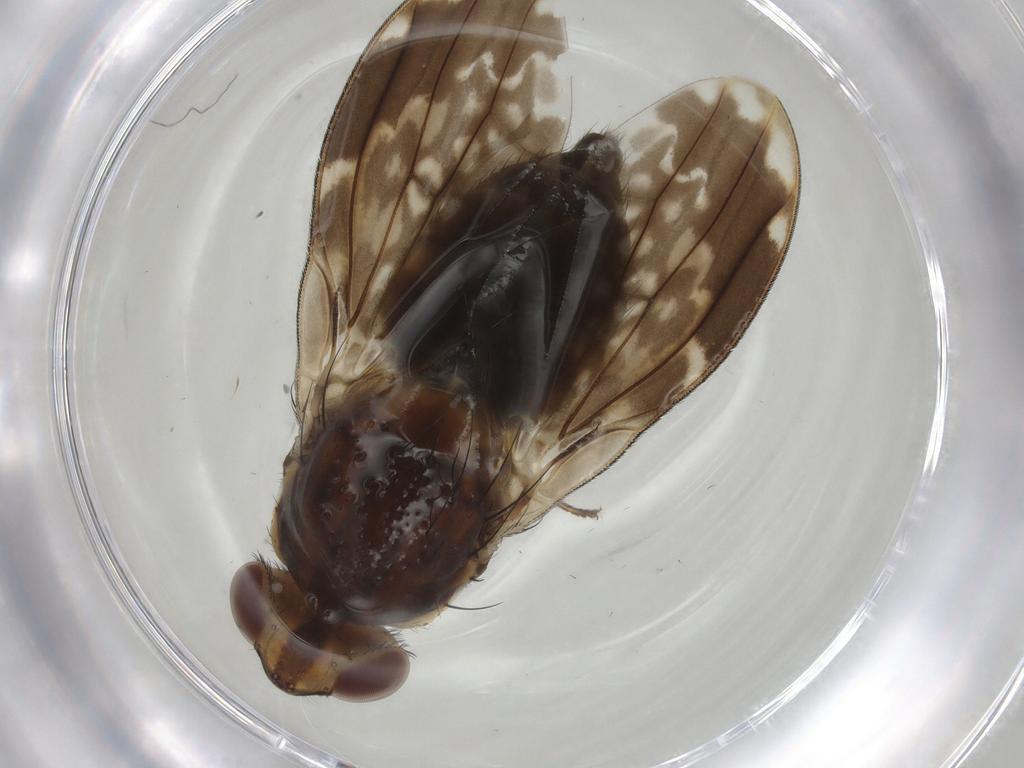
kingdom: Animalia
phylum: Arthropoda
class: Insecta
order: Diptera
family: Lauxaniidae
